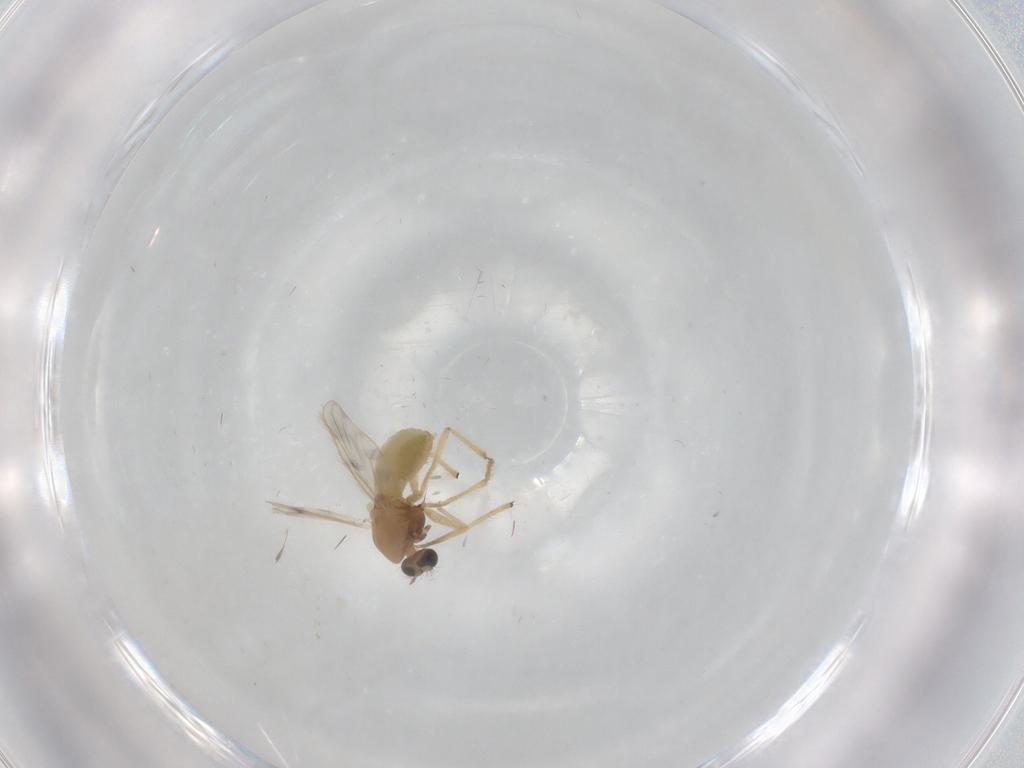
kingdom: Animalia
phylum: Arthropoda
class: Insecta
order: Diptera
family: Chironomidae
